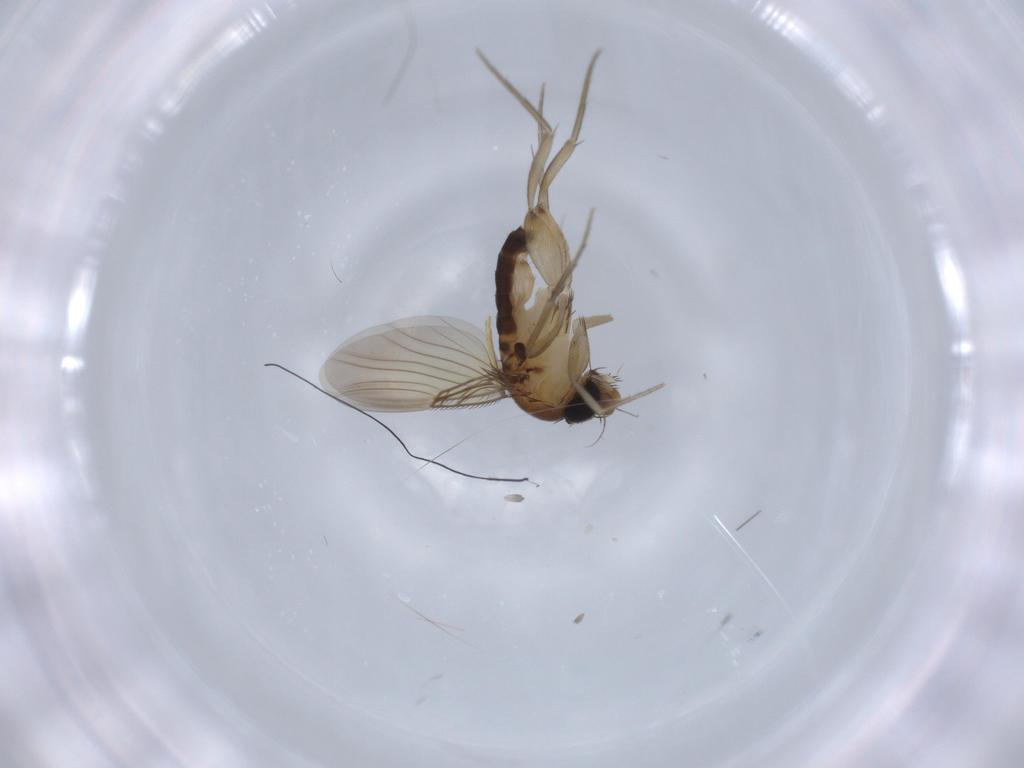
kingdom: Animalia
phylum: Arthropoda
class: Insecta
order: Diptera
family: Phoridae
